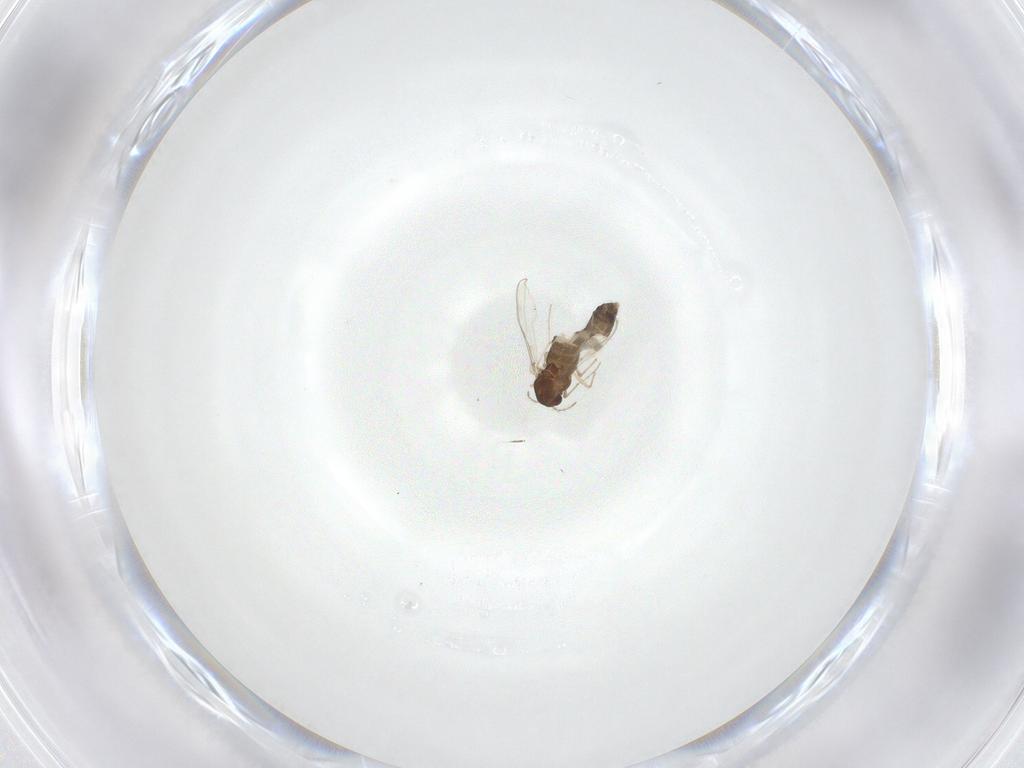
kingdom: Animalia
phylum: Arthropoda
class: Insecta
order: Diptera
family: Chironomidae
